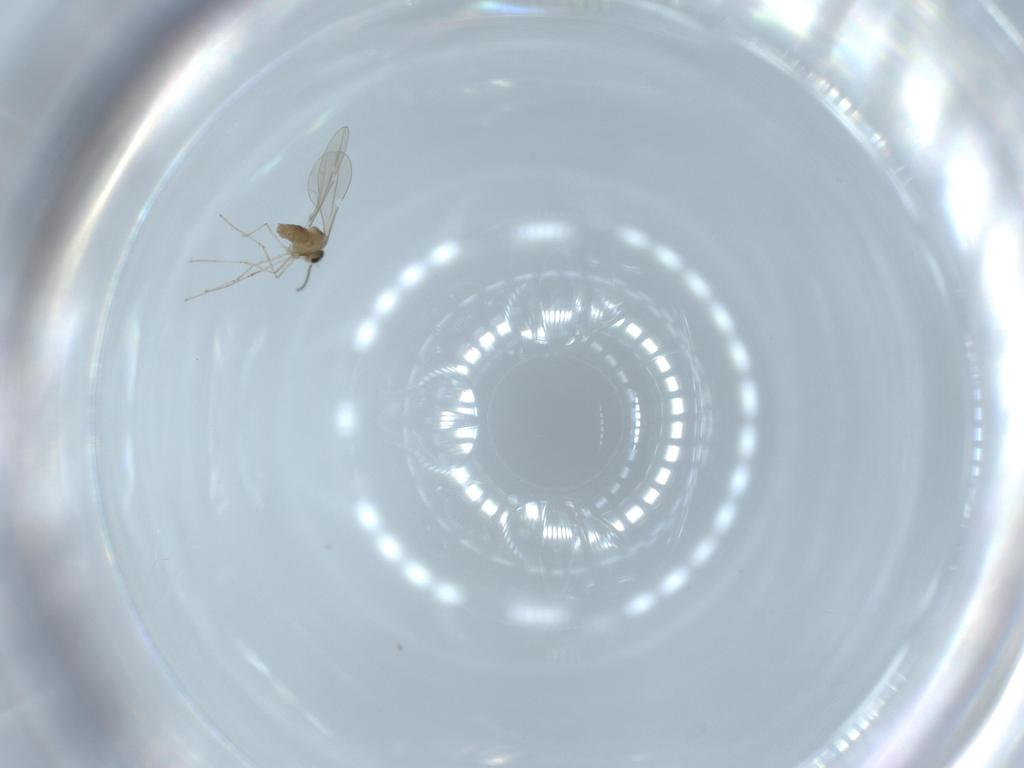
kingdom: Animalia
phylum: Arthropoda
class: Insecta
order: Diptera
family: Cecidomyiidae
